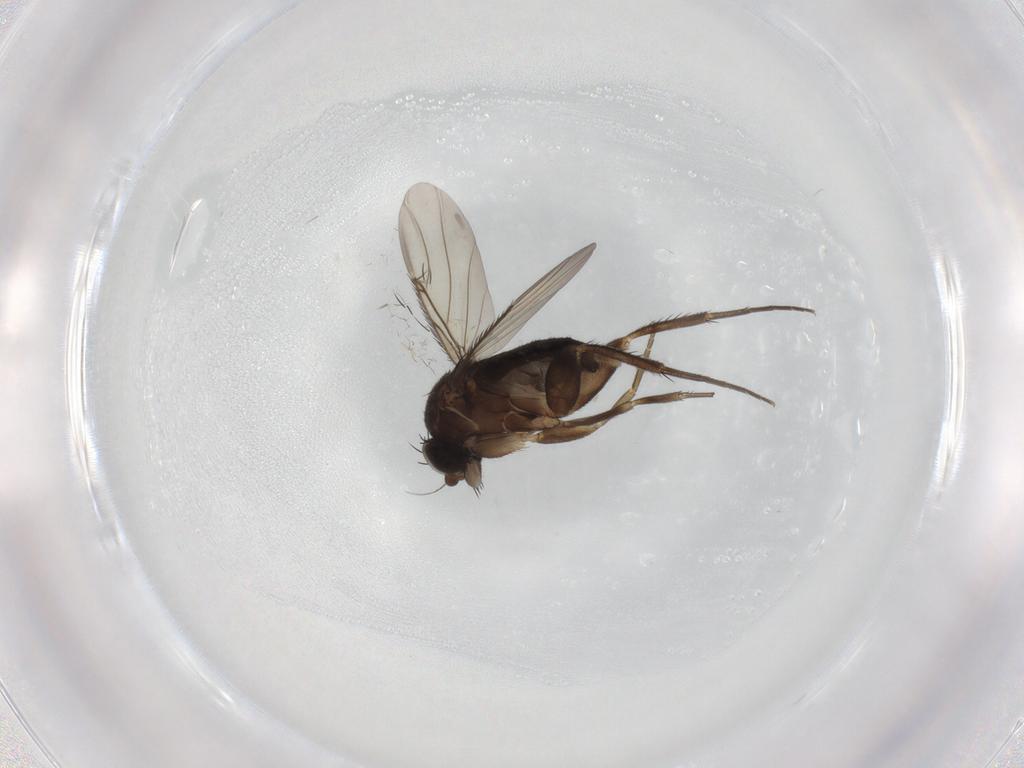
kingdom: Animalia
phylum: Arthropoda
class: Insecta
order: Diptera
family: Phoridae
